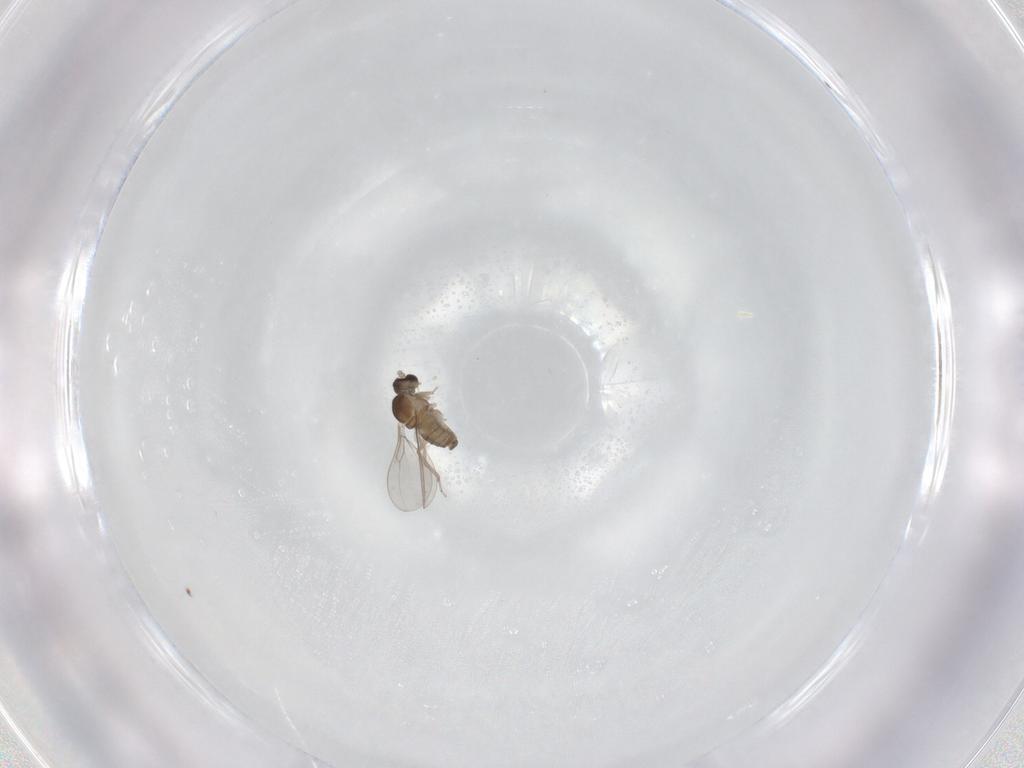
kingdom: Animalia
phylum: Arthropoda
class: Insecta
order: Diptera
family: Cecidomyiidae
